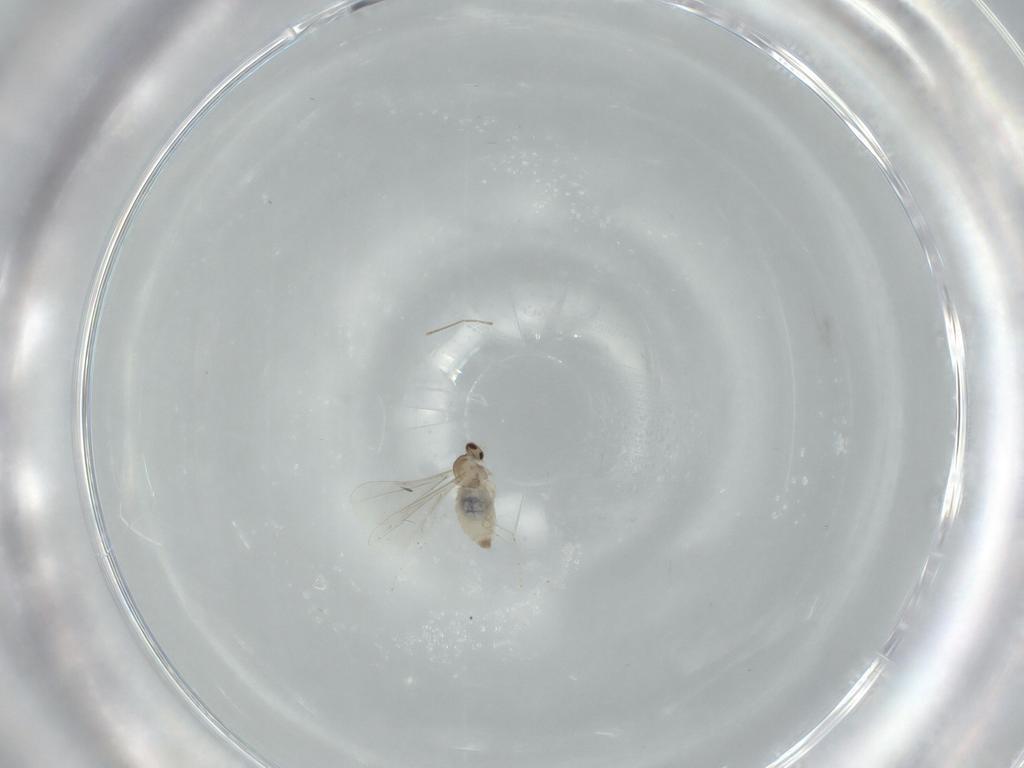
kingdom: Animalia
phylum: Arthropoda
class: Insecta
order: Diptera
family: Cecidomyiidae
